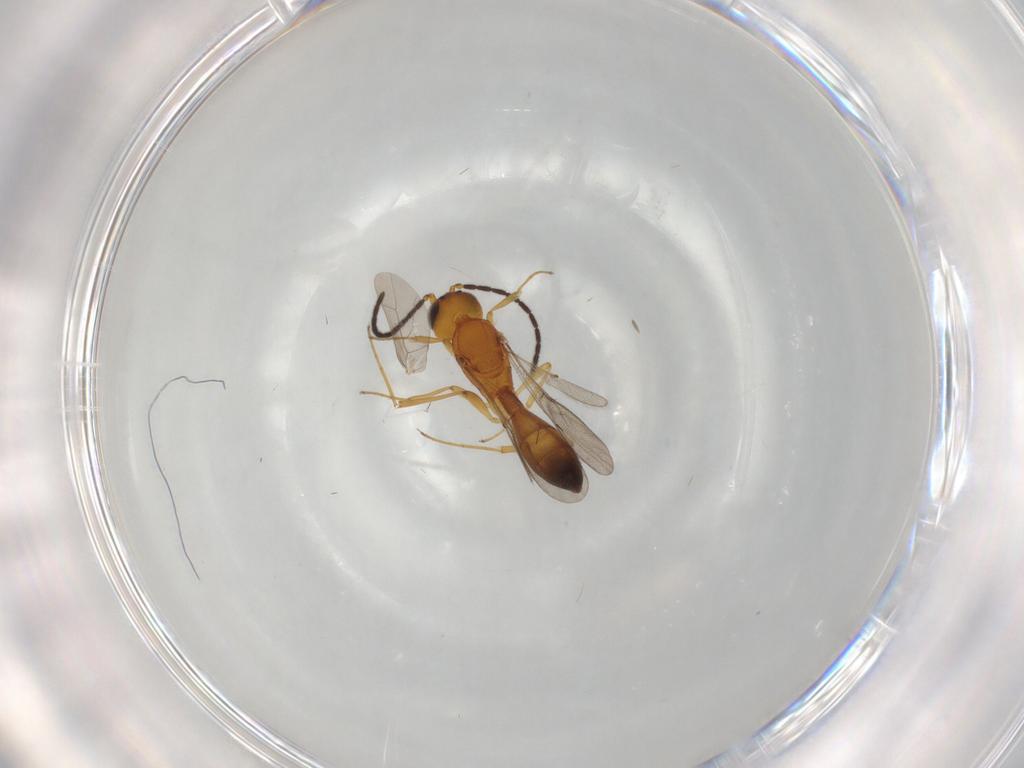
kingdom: Animalia
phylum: Arthropoda
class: Insecta
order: Hymenoptera
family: Scelionidae
